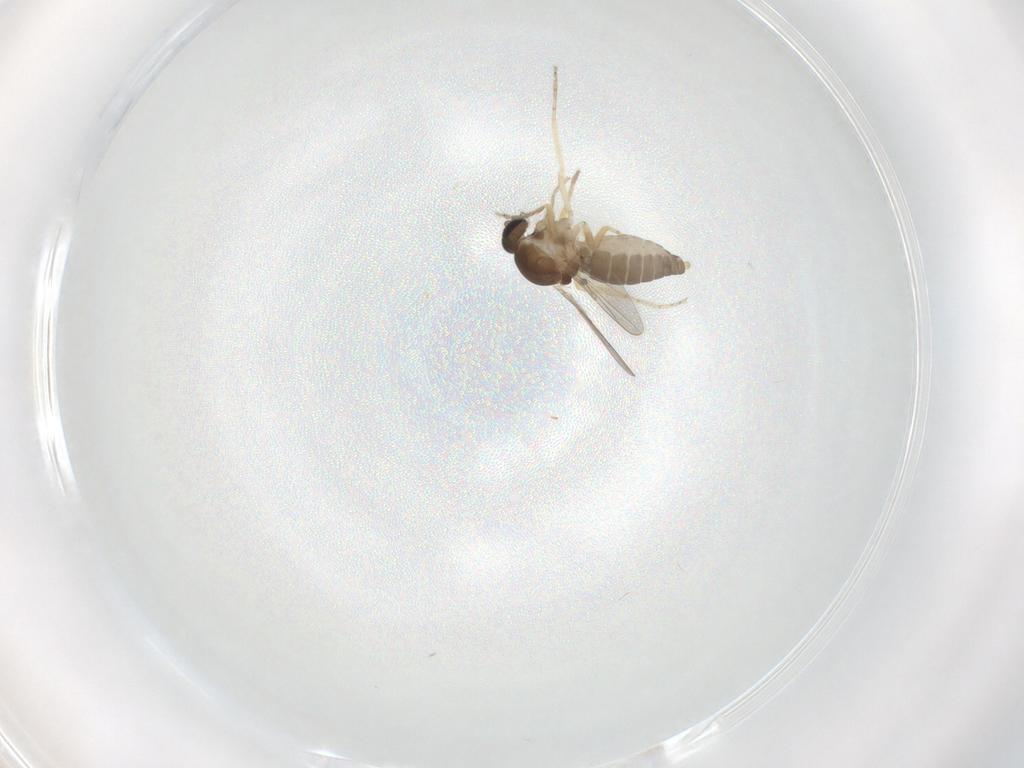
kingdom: Animalia
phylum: Arthropoda
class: Insecta
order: Diptera
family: Ceratopogonidae
